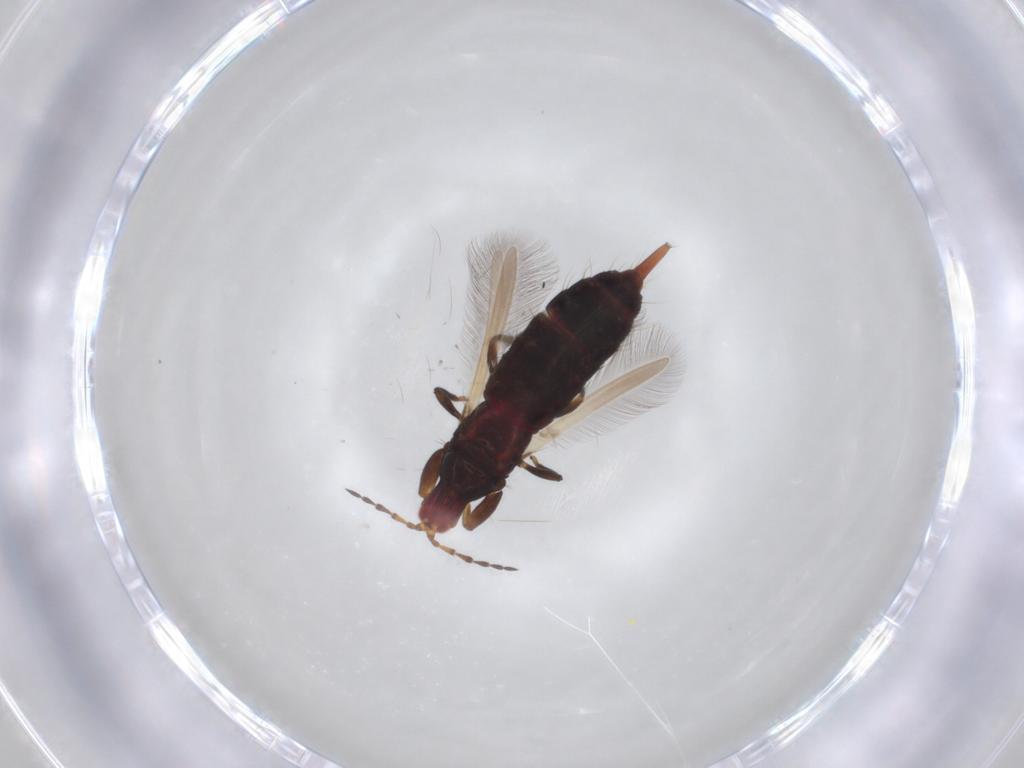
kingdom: Animalia
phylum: Arthropoda
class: Insecta
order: Thysanoptera
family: Phlaeothripidae
